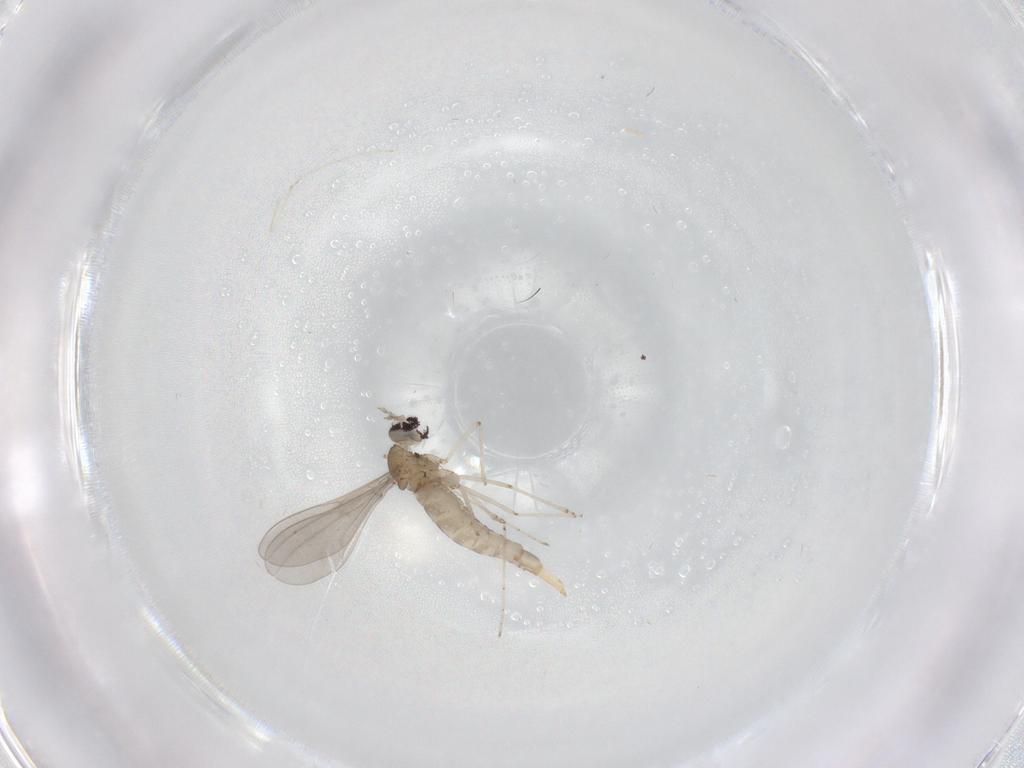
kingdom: Animalia
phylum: Arthropoda
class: Insecta
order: Diptera
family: Cecidomyiidae
